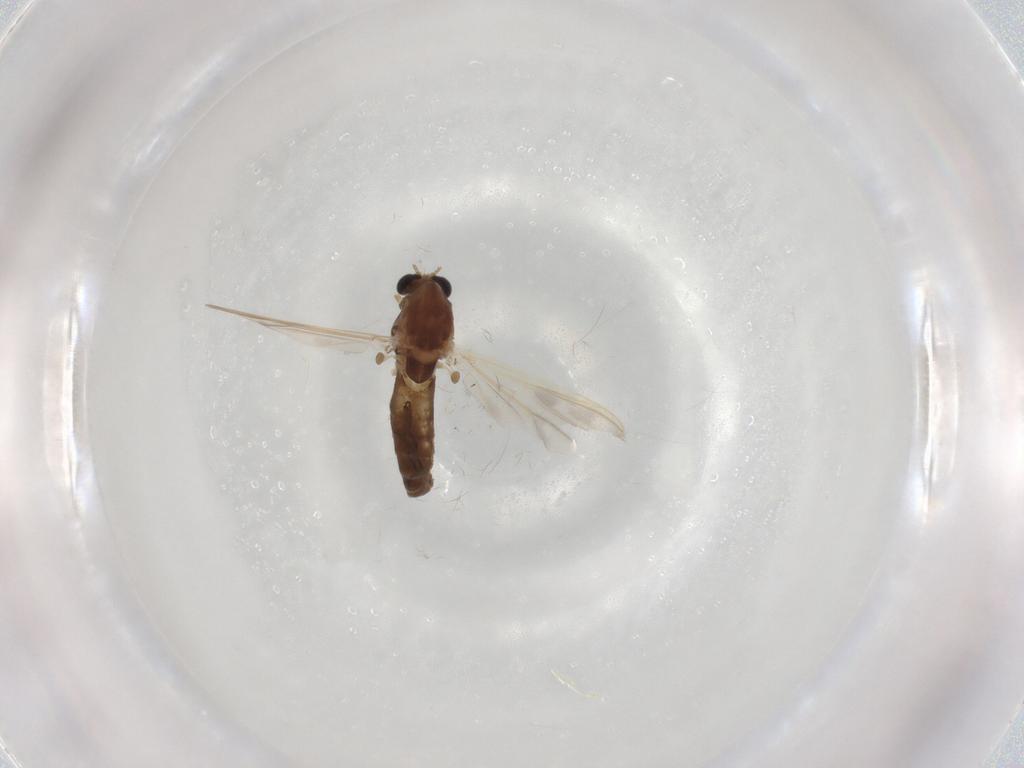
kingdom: Animalia
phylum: Arthropoda
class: Insecta
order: Diptera
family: Chironomidae
